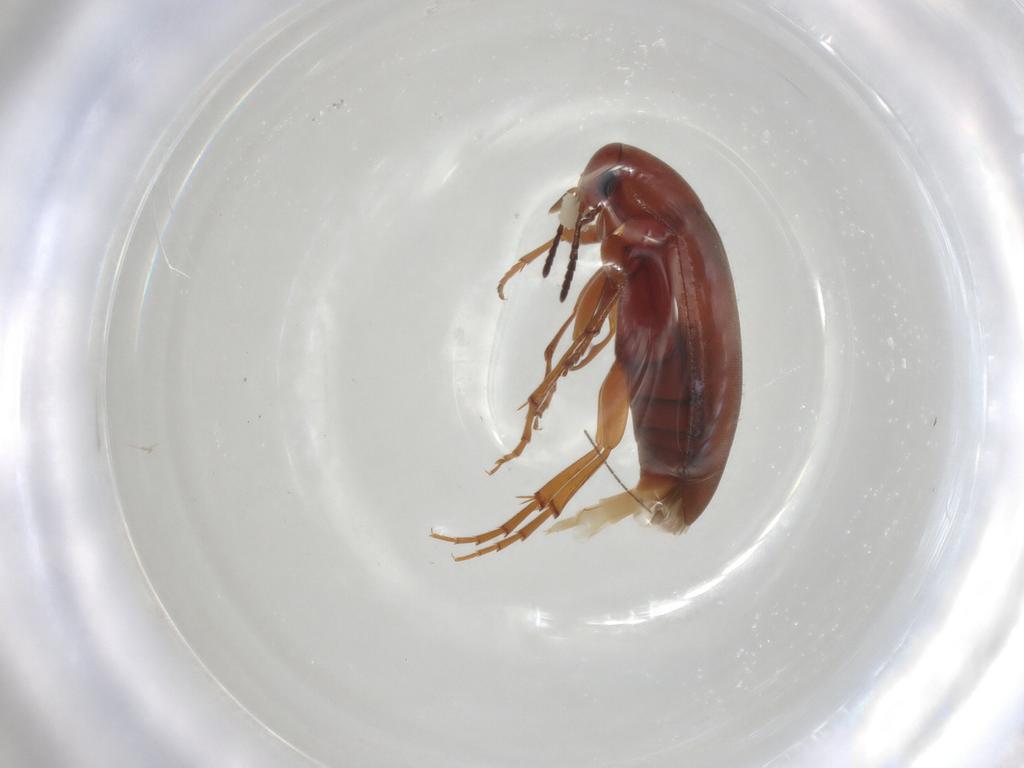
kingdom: Animalia
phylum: Arthropoda
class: Insecta
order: Coleoptera
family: Scraptiidae
